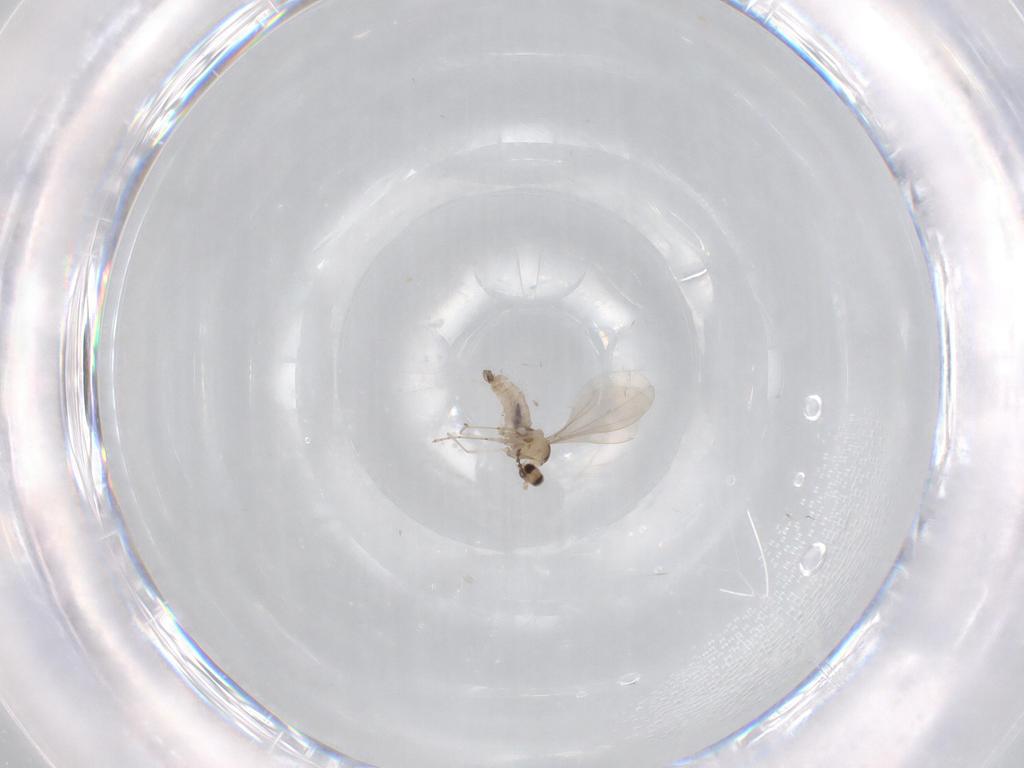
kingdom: Animalia
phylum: Arthropoda
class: Insecta
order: Diptera
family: Cecidomyiidae
